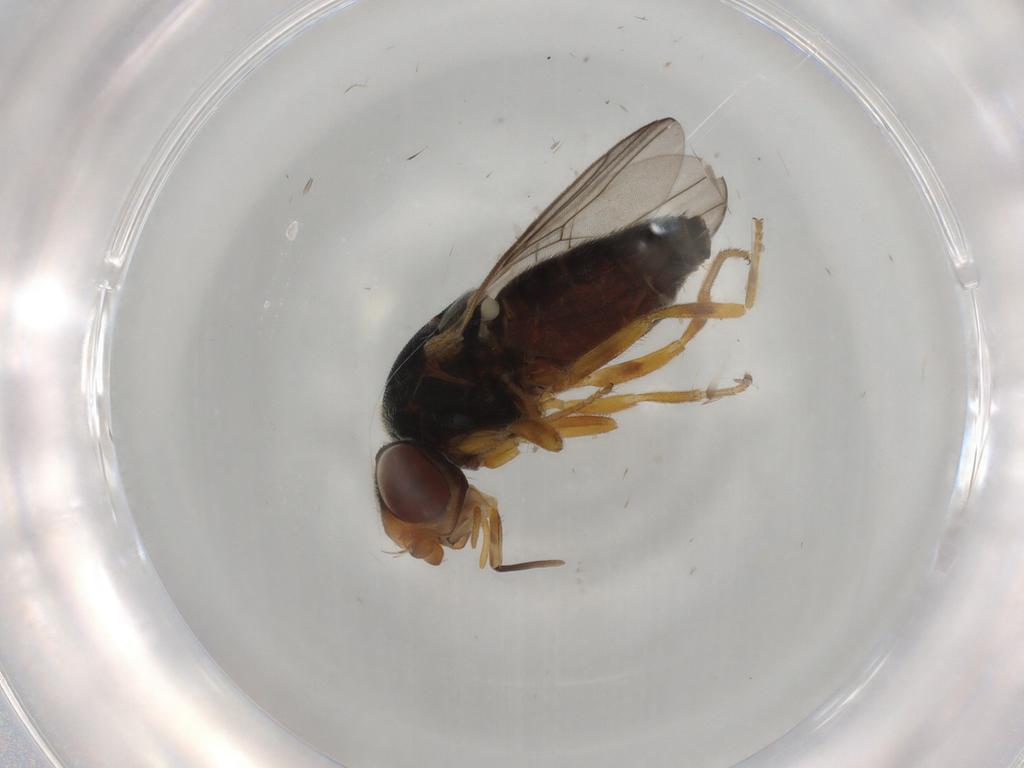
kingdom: Animalia
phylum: Arthropoda
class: Insecta
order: Diptera
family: Chloropidae
